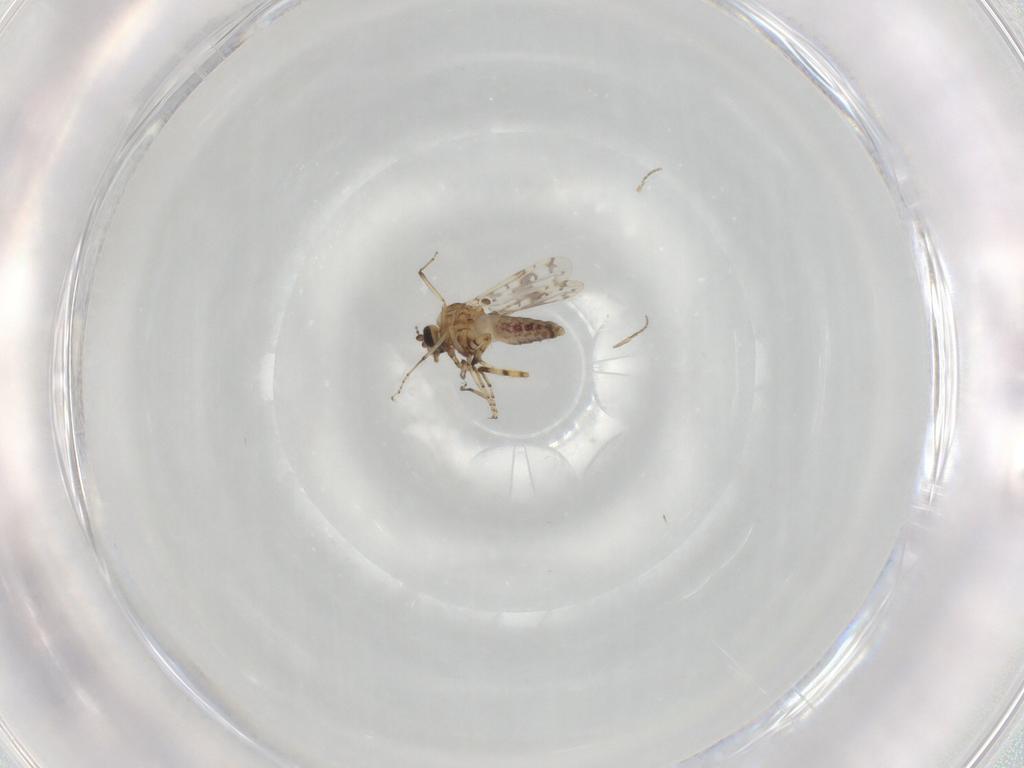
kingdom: Animalia
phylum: Arthropoda
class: Insecta
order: Diptera
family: Ceratopogonidae
